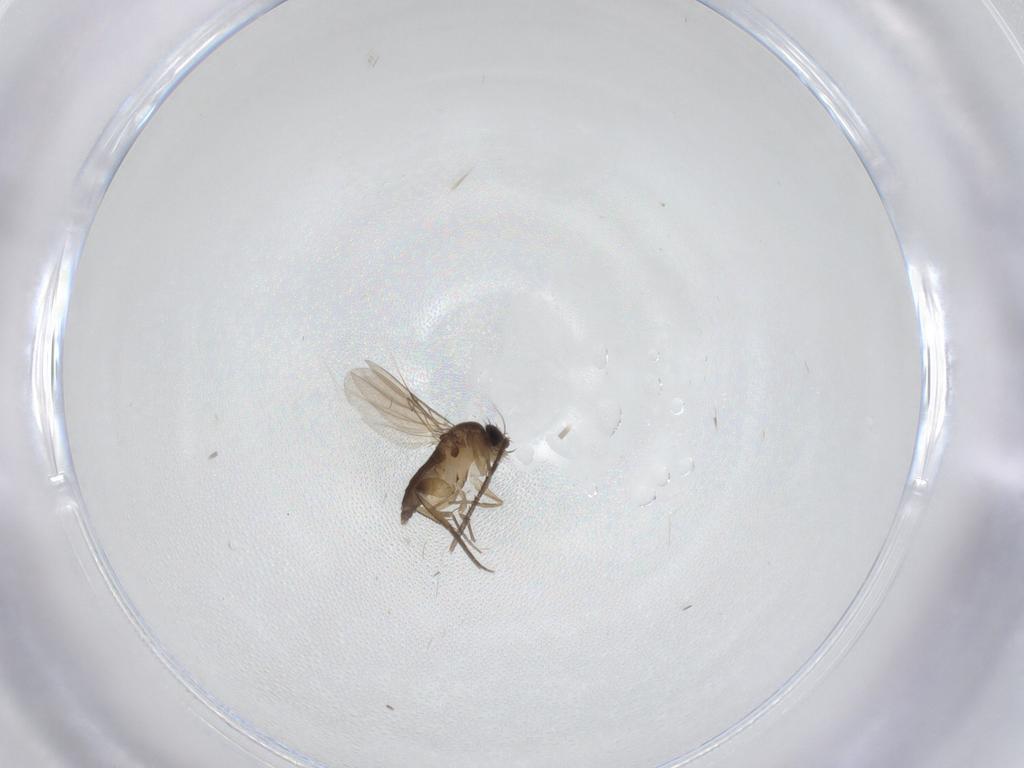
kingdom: Animalia
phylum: Arthropoda
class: Insecta
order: Diptera
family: Phoridae
